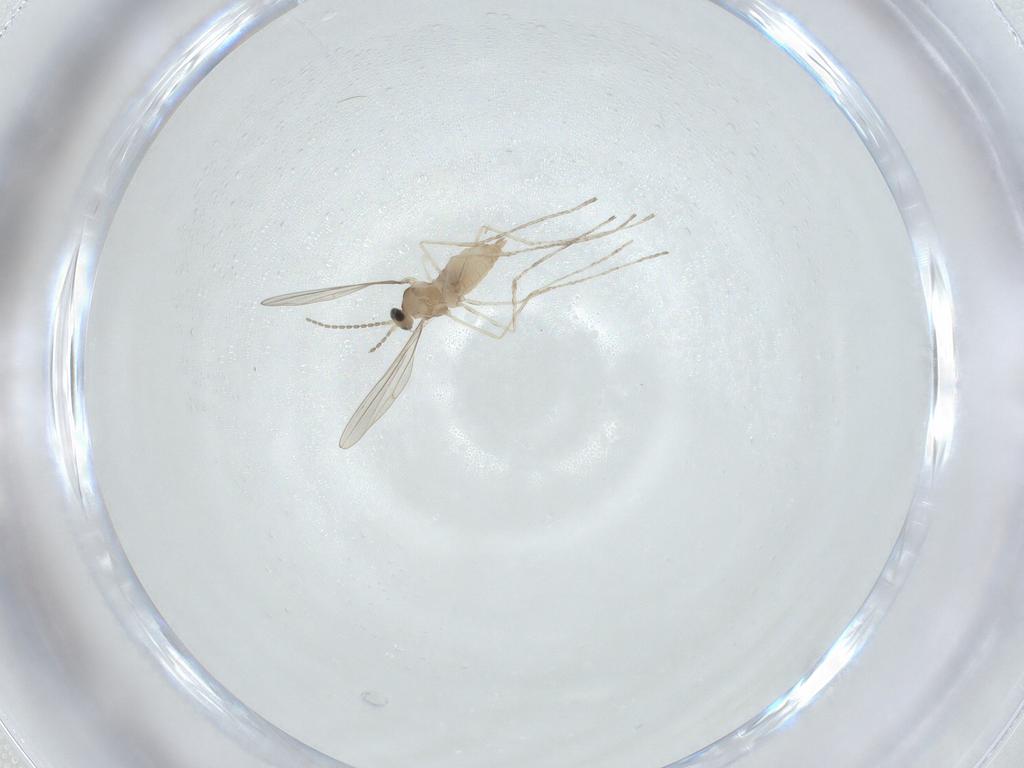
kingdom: Animalia
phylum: Arthropoda
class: Insecta
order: Diptera
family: Cecidomyiidae
